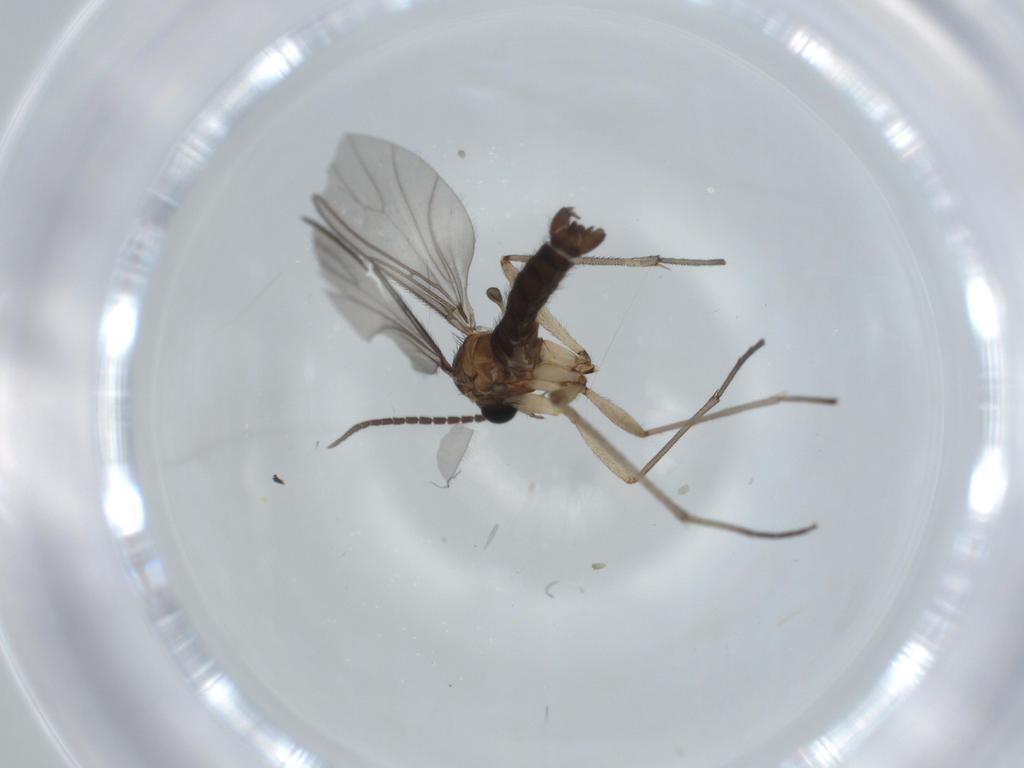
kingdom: Animalia
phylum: Arthropoda
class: Insecta
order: Diptera
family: Sciaridae
